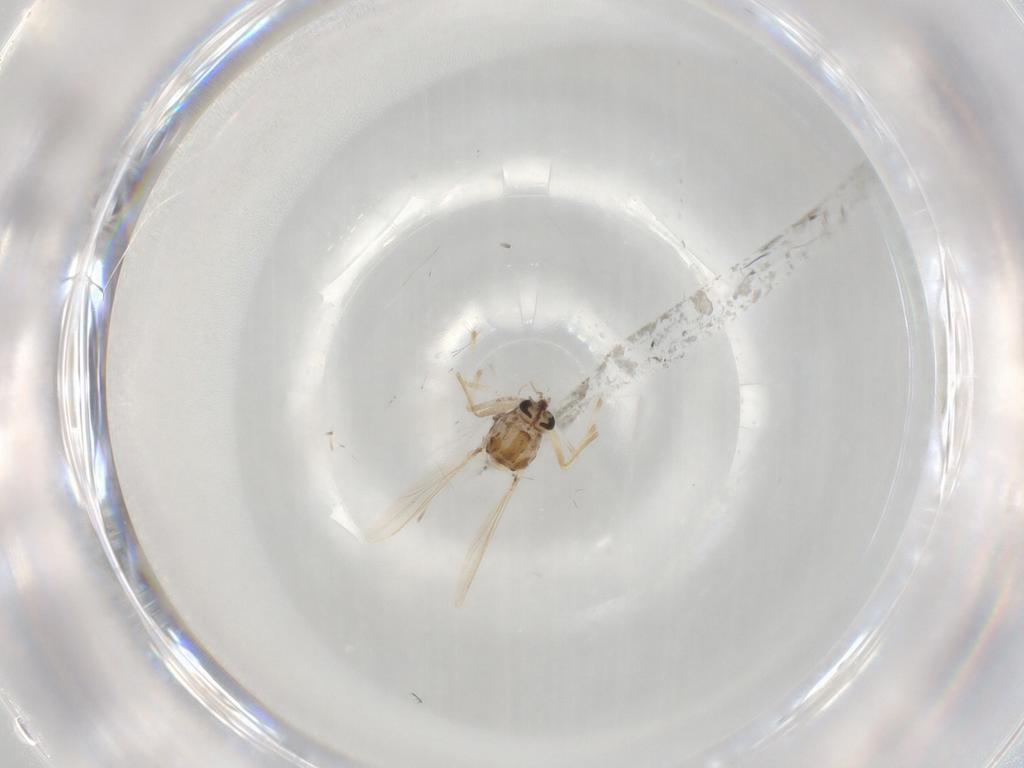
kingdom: Animalia
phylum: Arthropoda
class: Insecta
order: Diptera
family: Chironomidae
